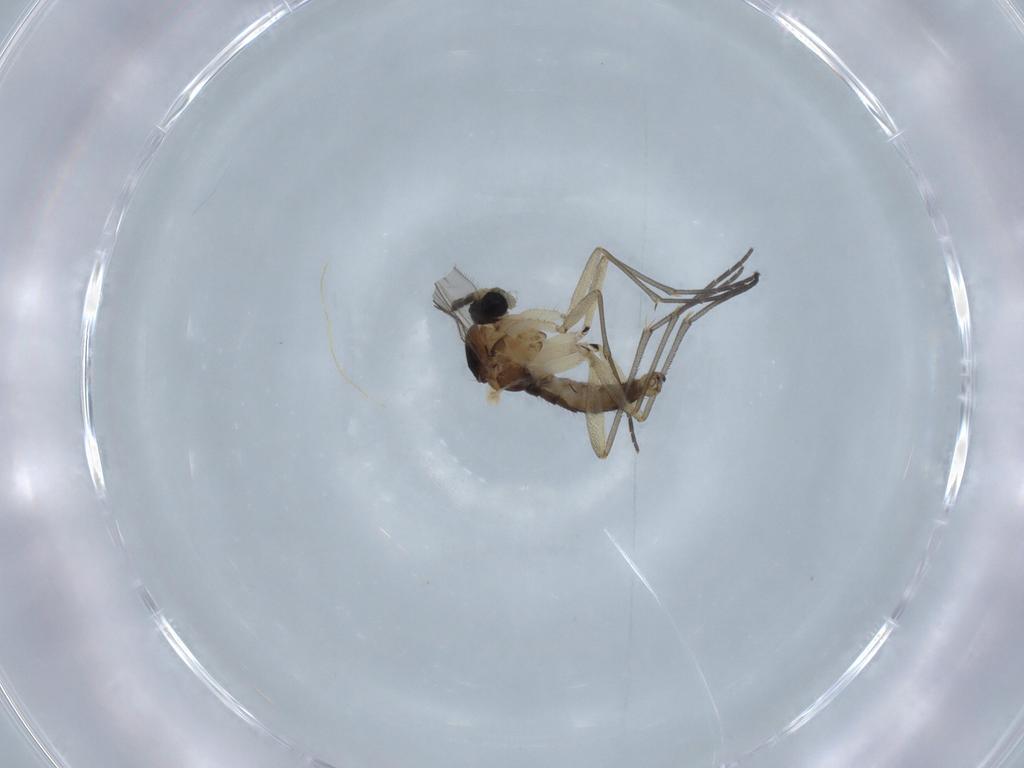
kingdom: Animalia
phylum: Arthropoda
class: Insecta
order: Diptera
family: Sciaridae
